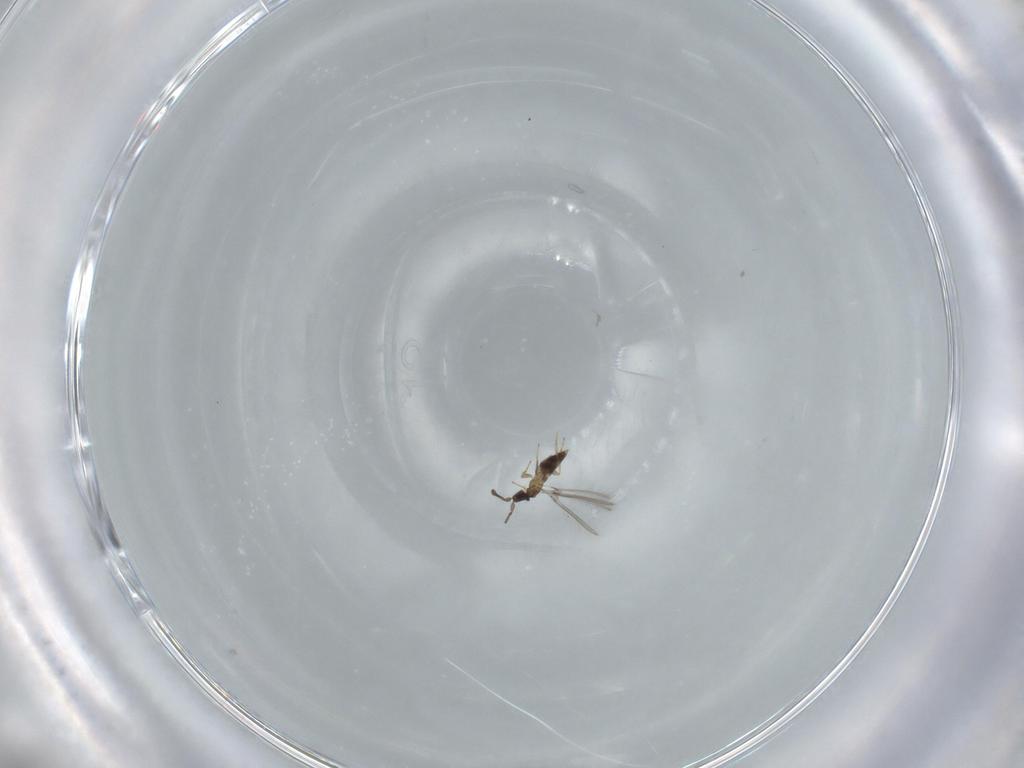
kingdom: Animalia
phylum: Arthropoda
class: Insecta
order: Hymenoptera
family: Mymaridae
